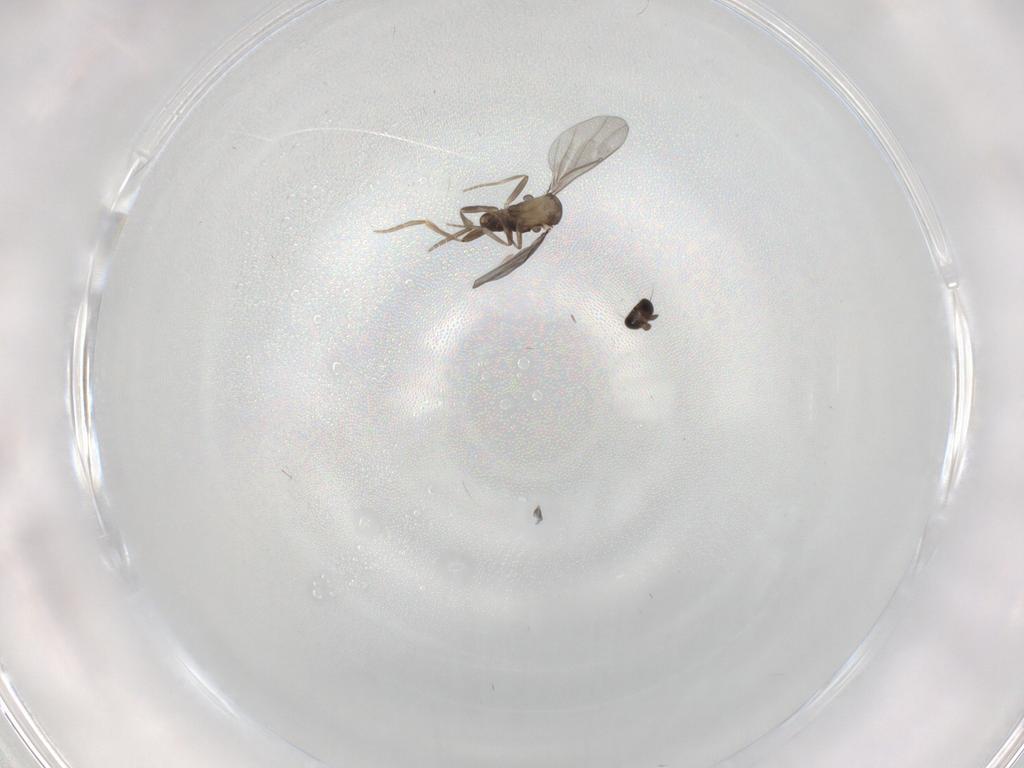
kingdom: Animalia
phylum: Arthropoda
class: Insecta
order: Diptera
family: Sciaridae
